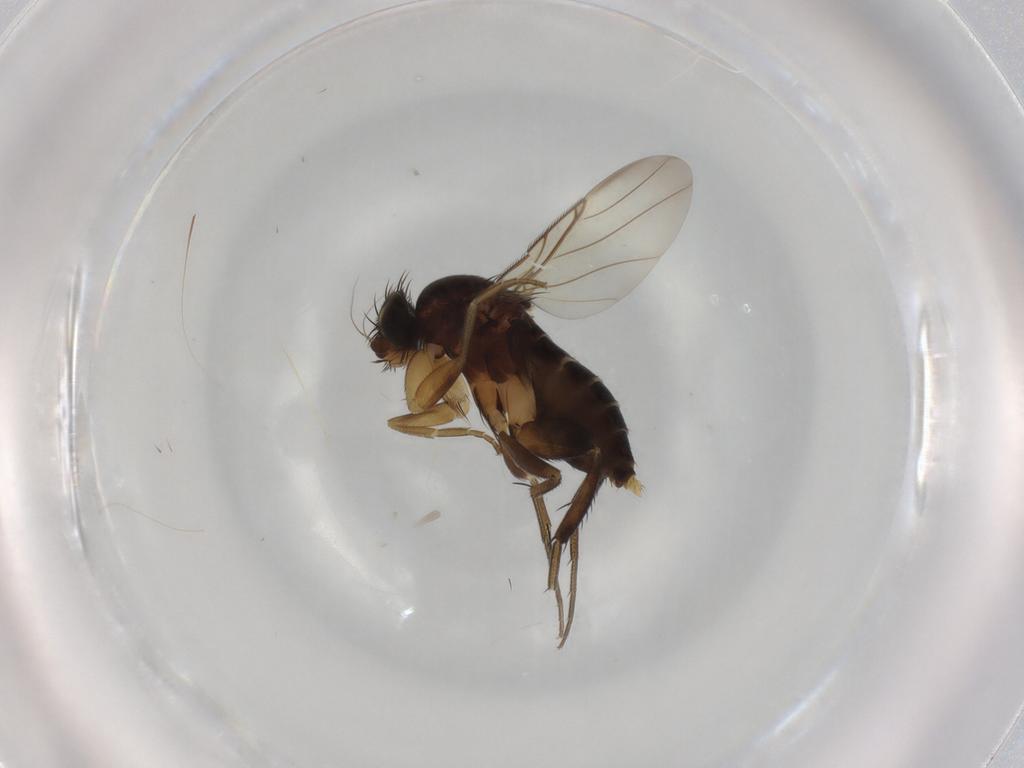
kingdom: Animalia
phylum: Arthropoda
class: Insecta
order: Diptera
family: Phoridae
